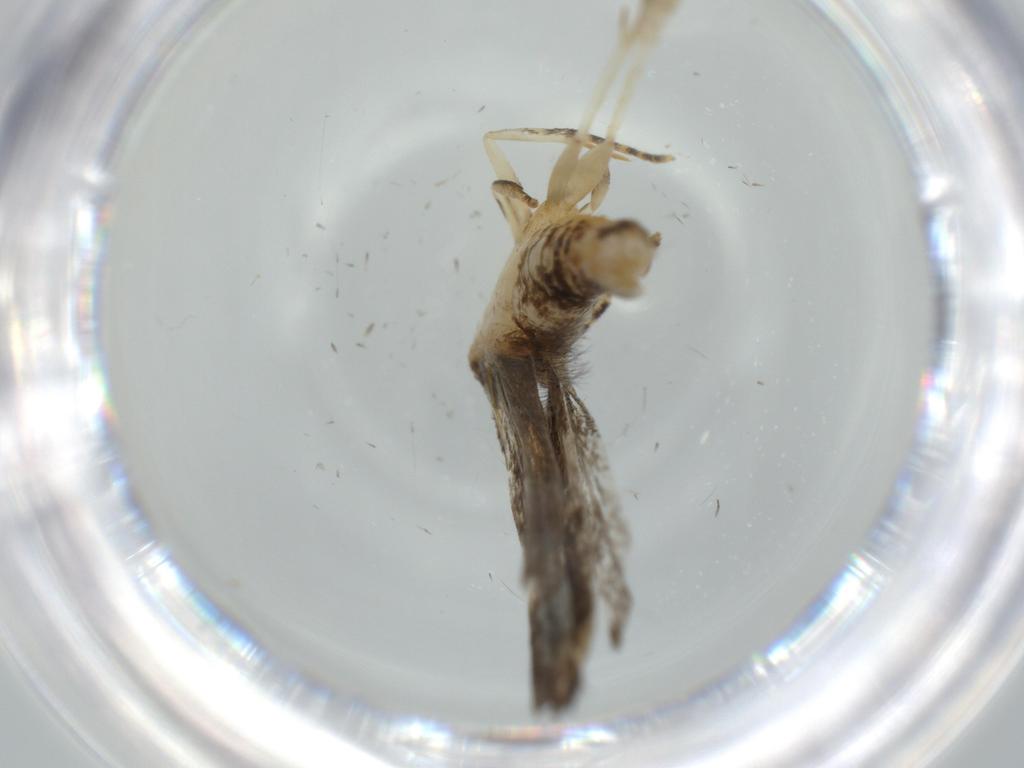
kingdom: Animalia
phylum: Arthropoda
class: Insecta
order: Lepidoptera
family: Coleophoridae
